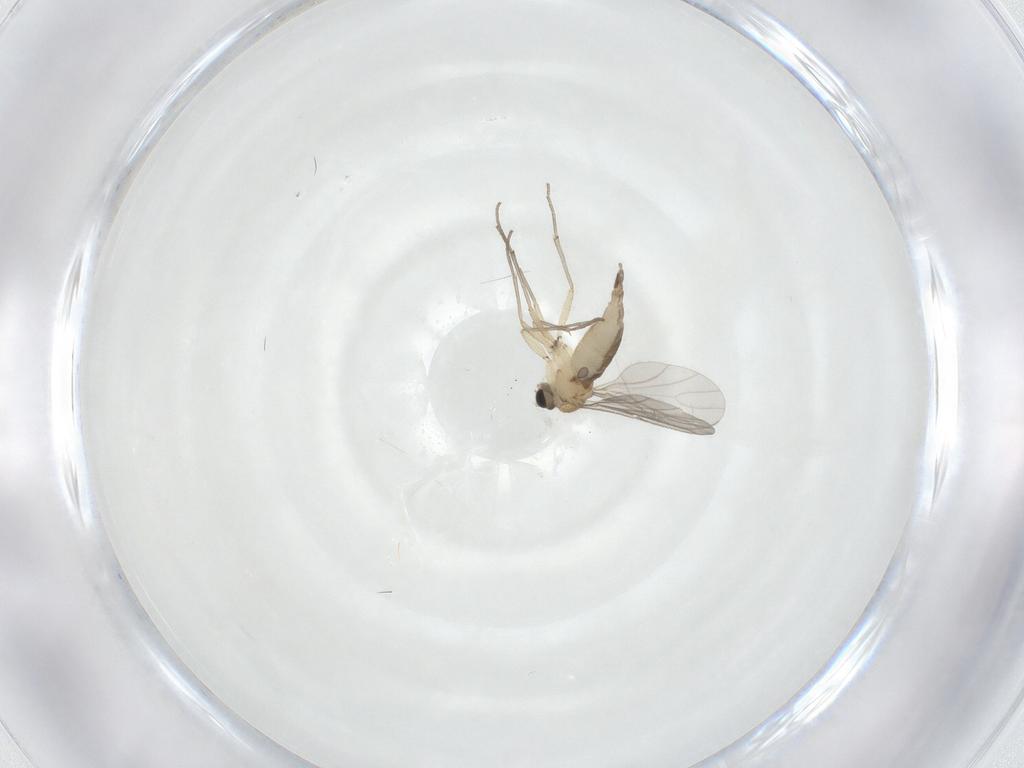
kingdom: Animalia
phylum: Arthropoda
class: Insecta
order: Diptera
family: Sciaridae
